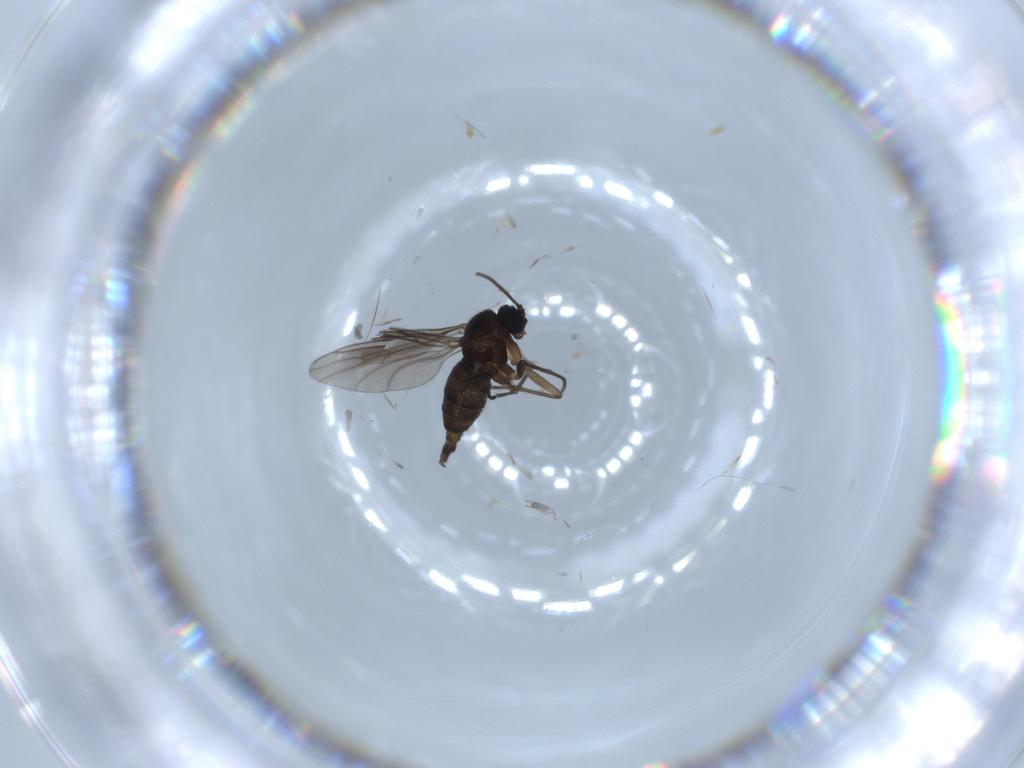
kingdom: Animalia
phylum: Arthropoda
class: Insecta
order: Diptera
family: Sciaridae
